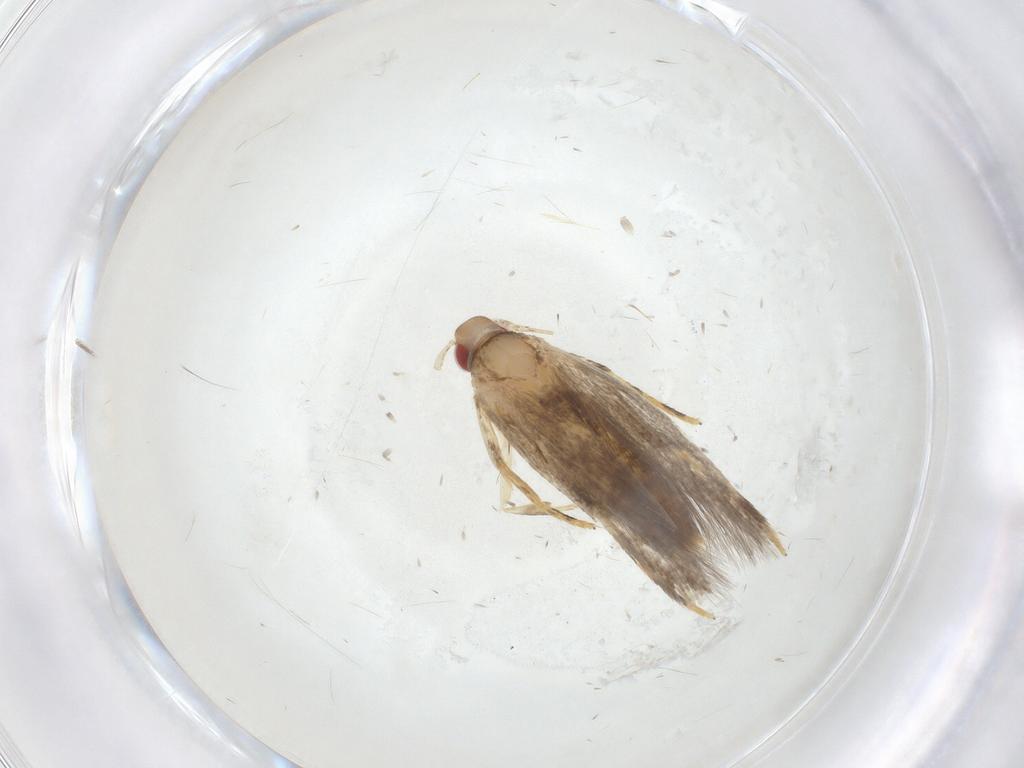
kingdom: Animalia
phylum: Arthropoda
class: Insecta
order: Lepidoptera
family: Cosmopterigidae
